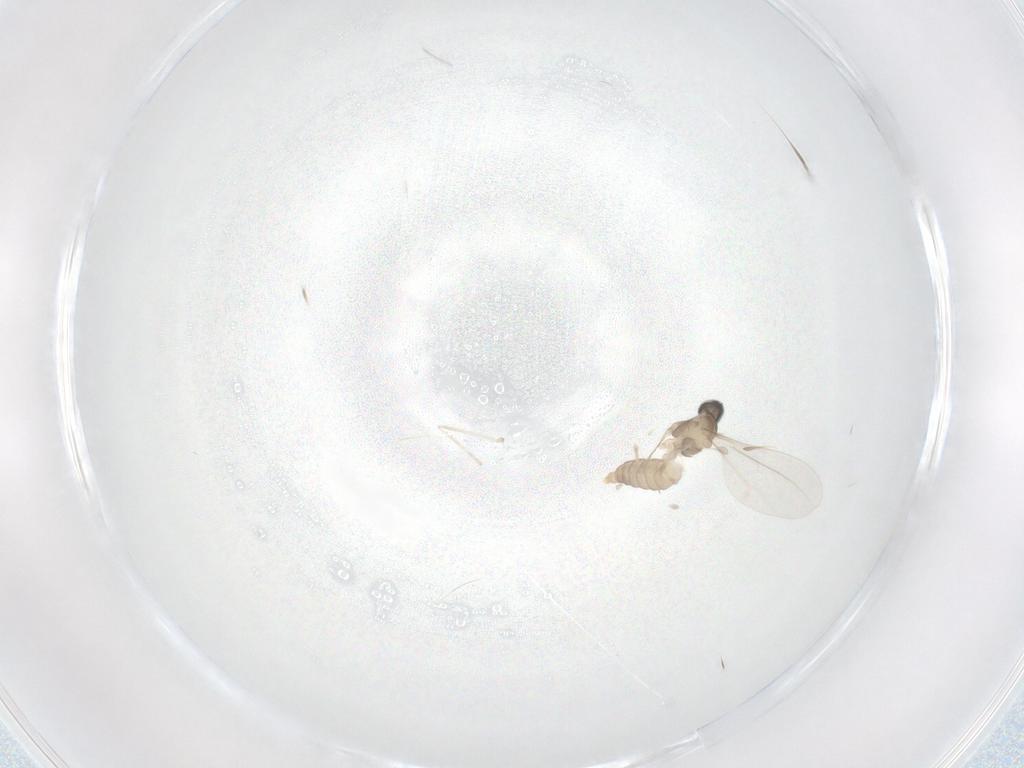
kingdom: Animalia
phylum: Arthropoda
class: Insecta
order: Diptera
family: Cecidomyiidae
